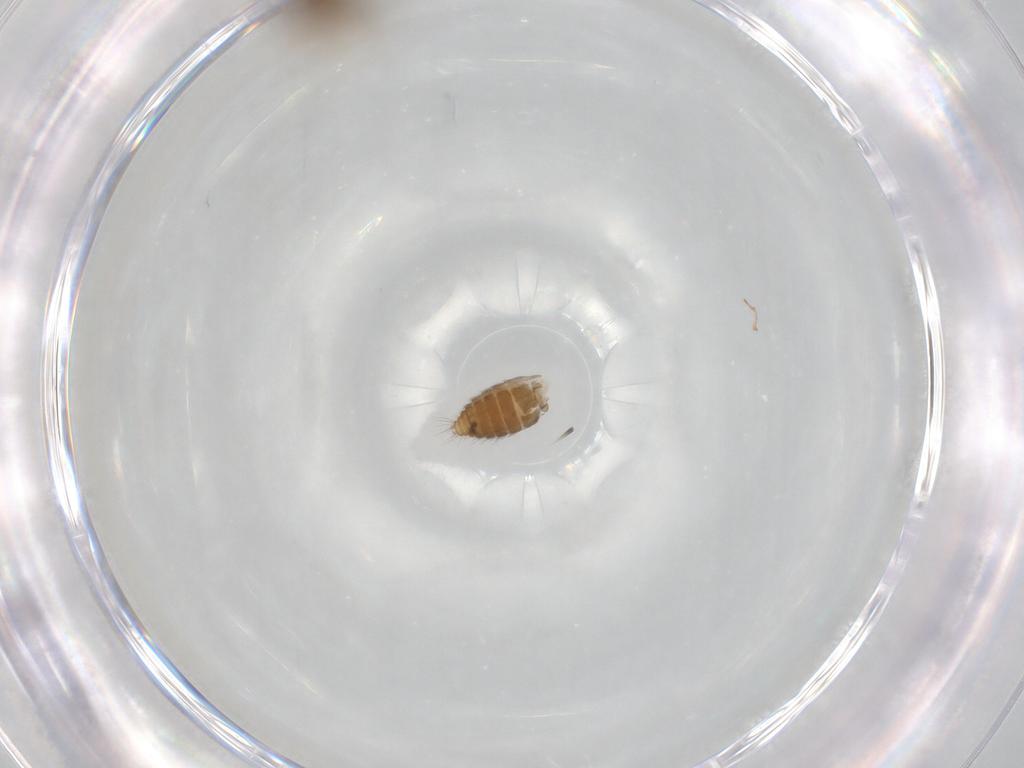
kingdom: Animalia
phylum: Arthropoda
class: Insecta
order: Diptera
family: Ceratopogonidae
